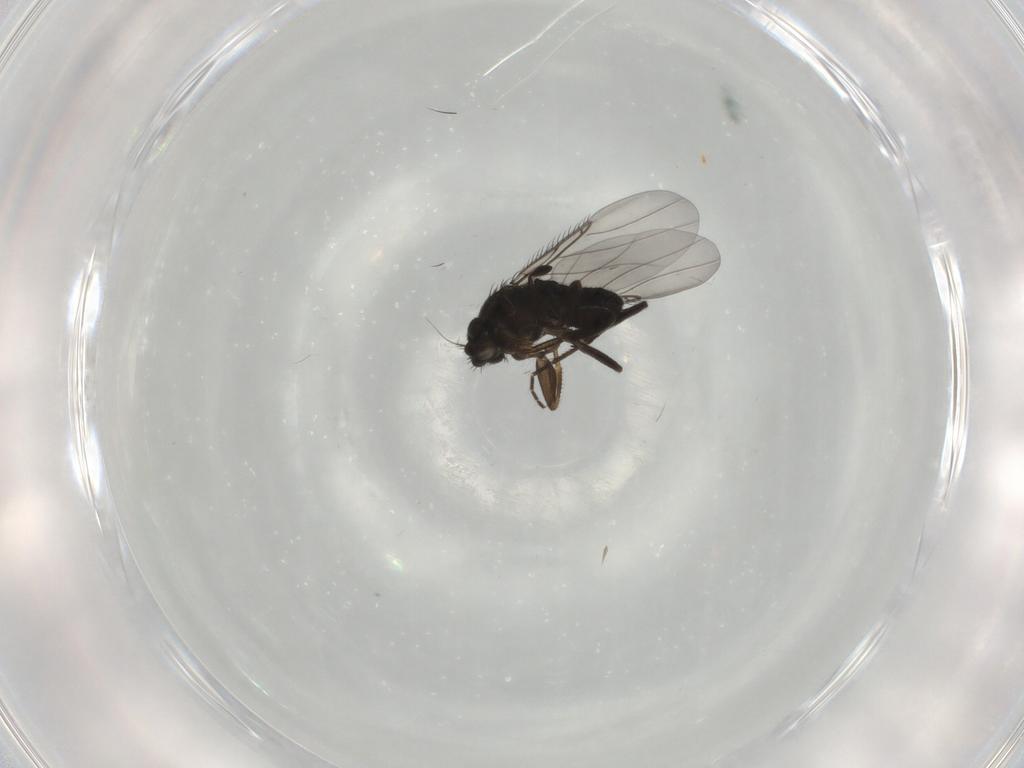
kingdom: Animalia
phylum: Arthropoda
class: Insecta
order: Diptera
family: Phoridae
